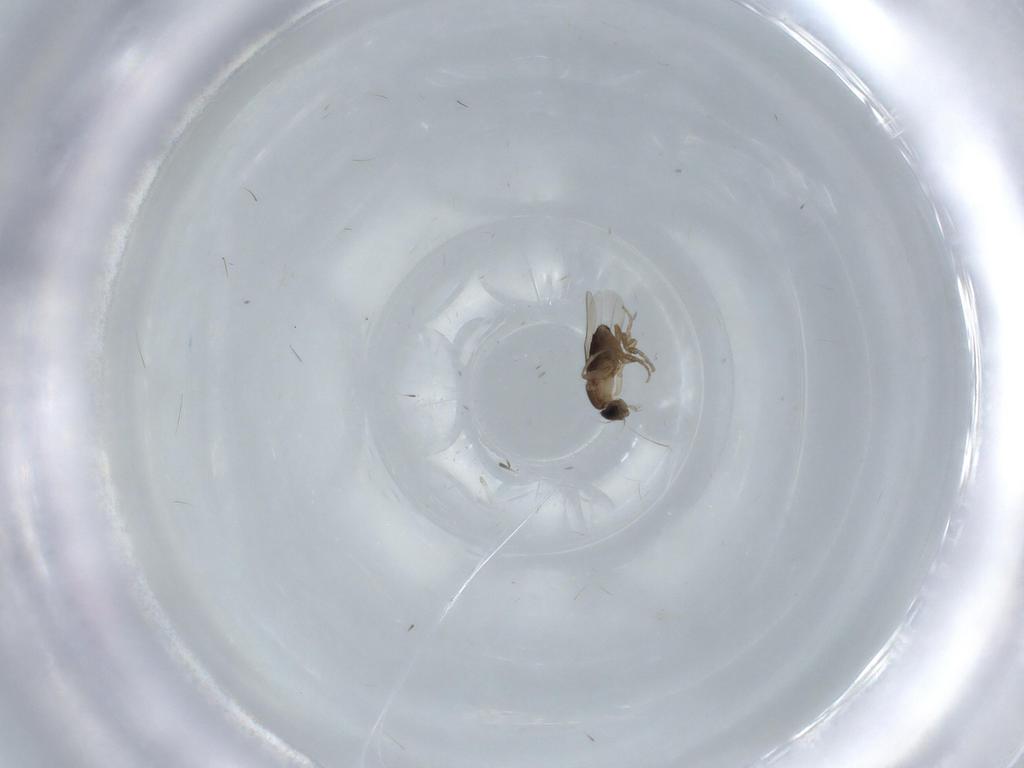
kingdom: Animalia
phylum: Arthropoda
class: Insecta
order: Diptera
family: Phoridae
